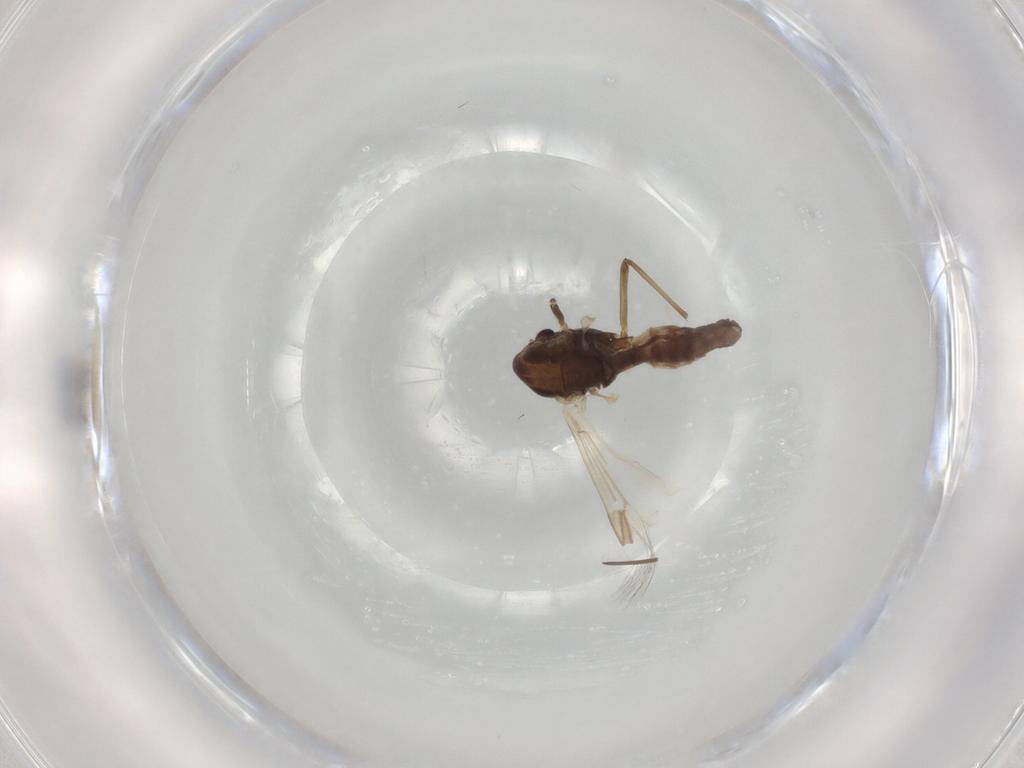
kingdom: Animalia
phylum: Arthropoda
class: Insecta
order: Diptera
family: Chironomidae
